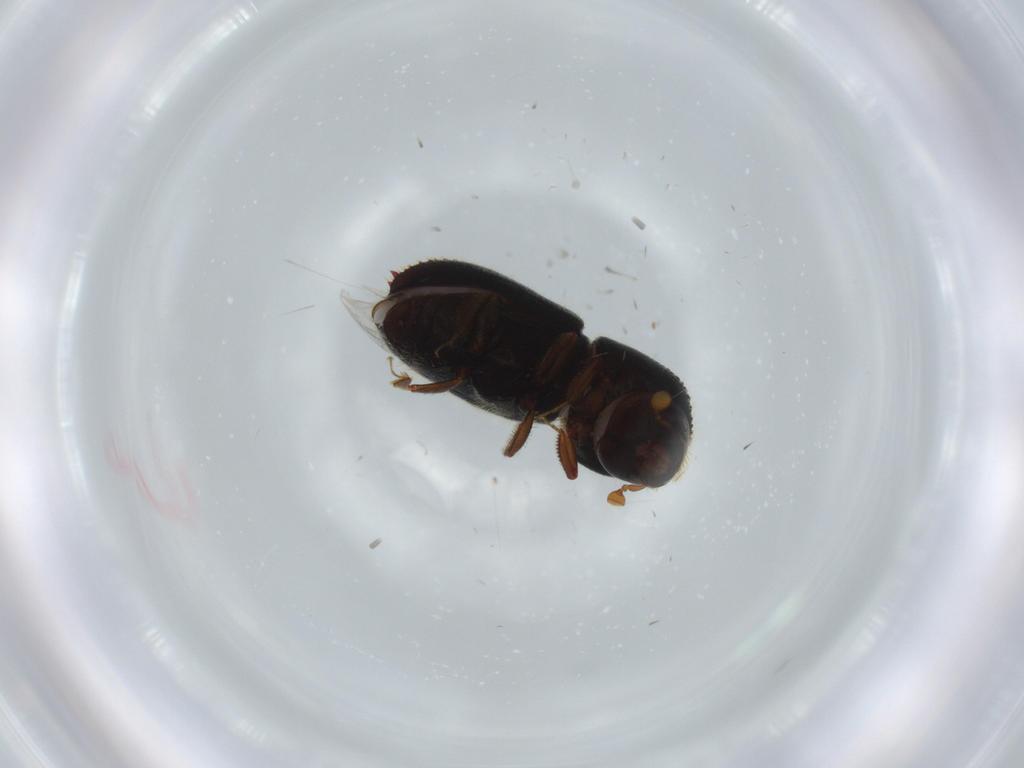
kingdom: Animalia
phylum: Arthropoda
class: Insecta
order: Coleoptera
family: Curculionidae
